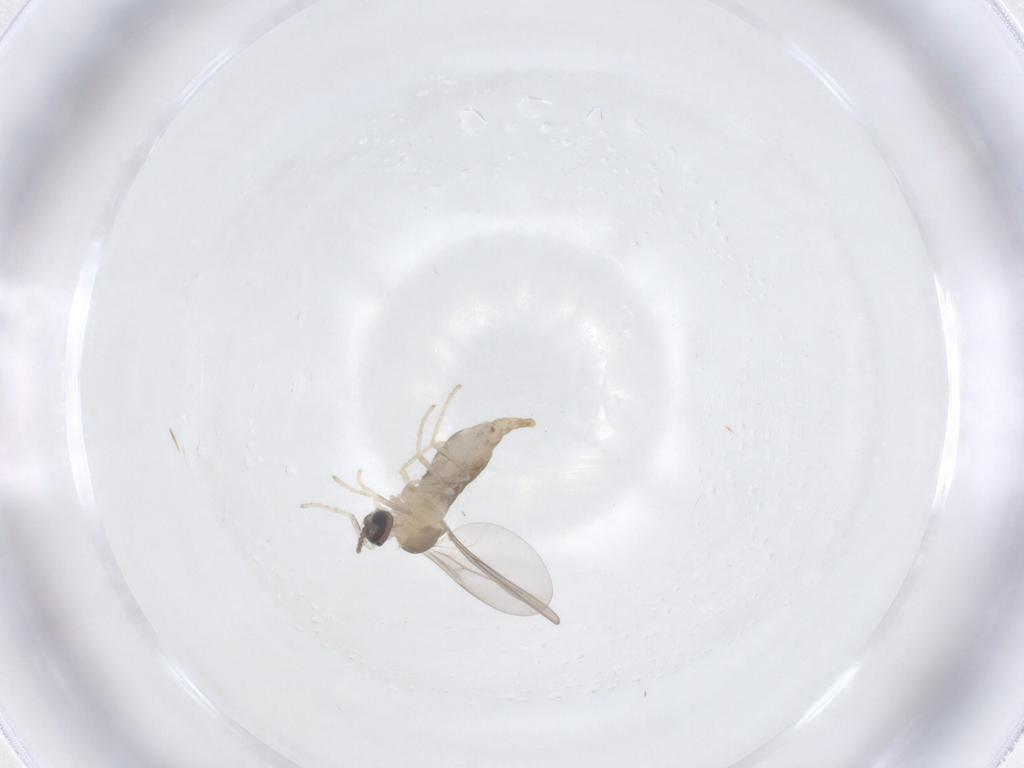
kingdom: Animalia
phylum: Arthropoda
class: Insecta
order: Diptera
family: Cecidomyiidae
